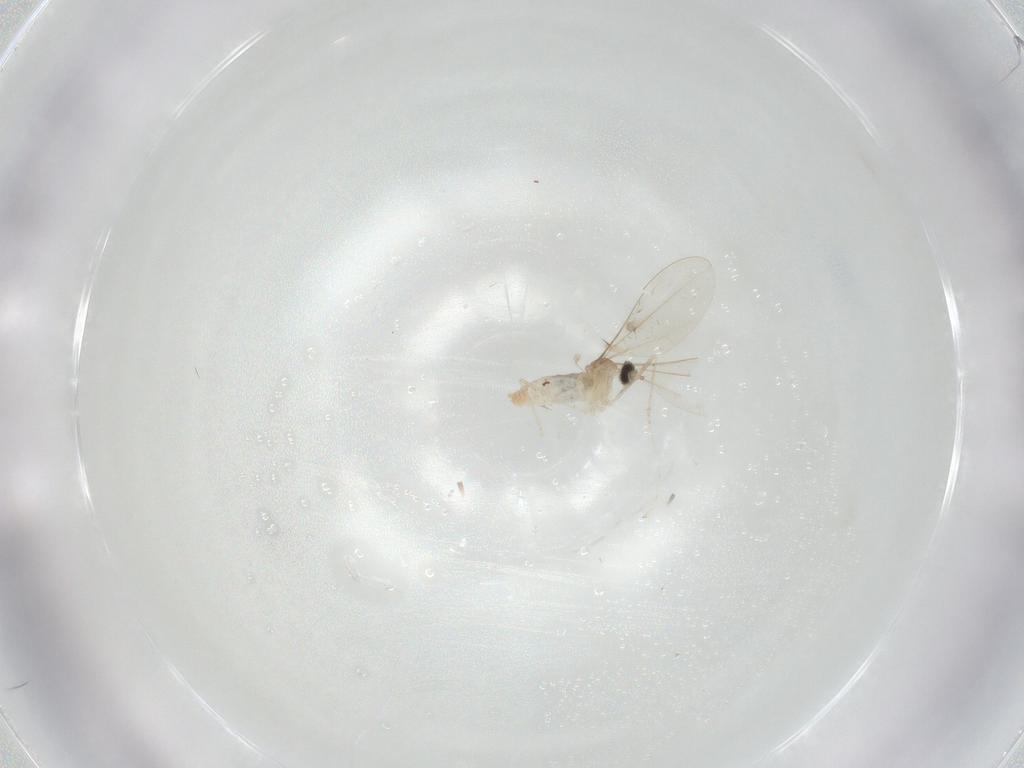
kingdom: Animalia
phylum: Arthropoda
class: Insecta
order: Diptera
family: Cecidomyiidae
